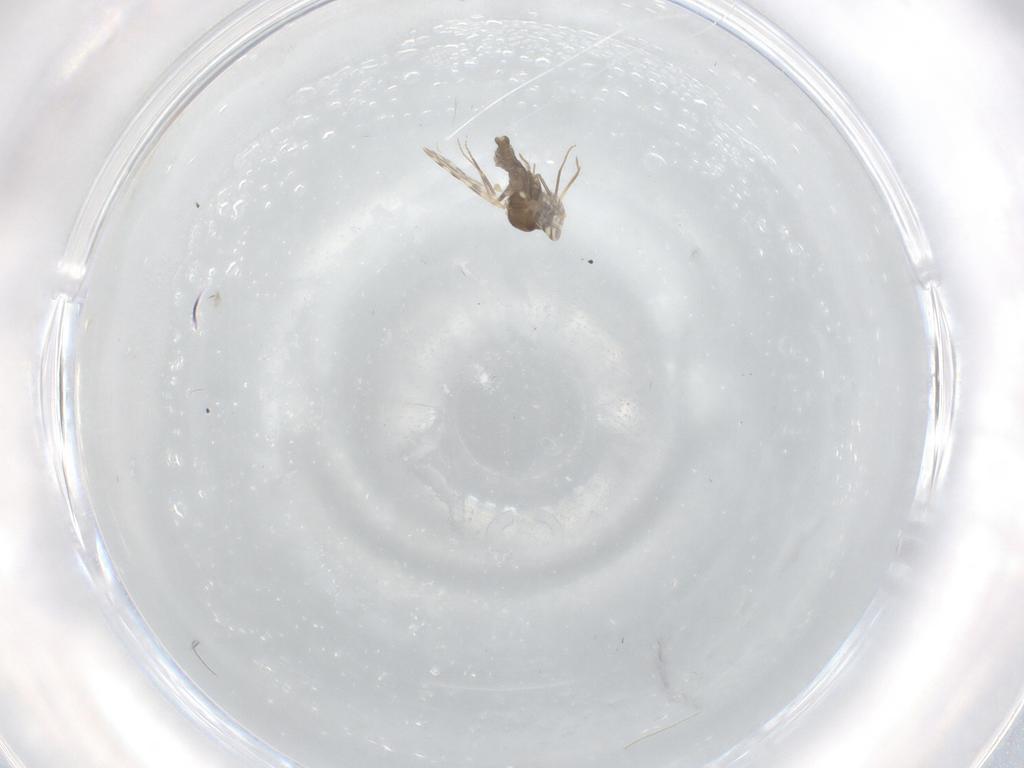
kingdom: Animalia
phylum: Arthropoda
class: Insecta
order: Diptera
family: Ceratopogonidae
